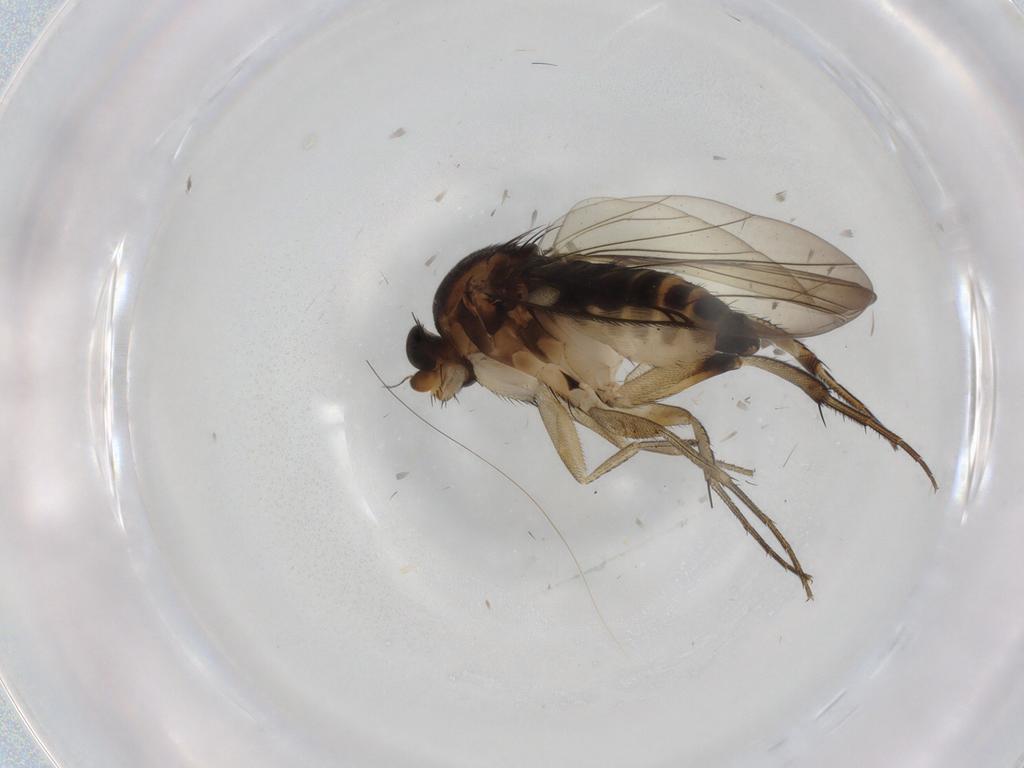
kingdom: Animalia
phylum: Arthropoda
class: Insecta
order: Diptera
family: Phoridae
